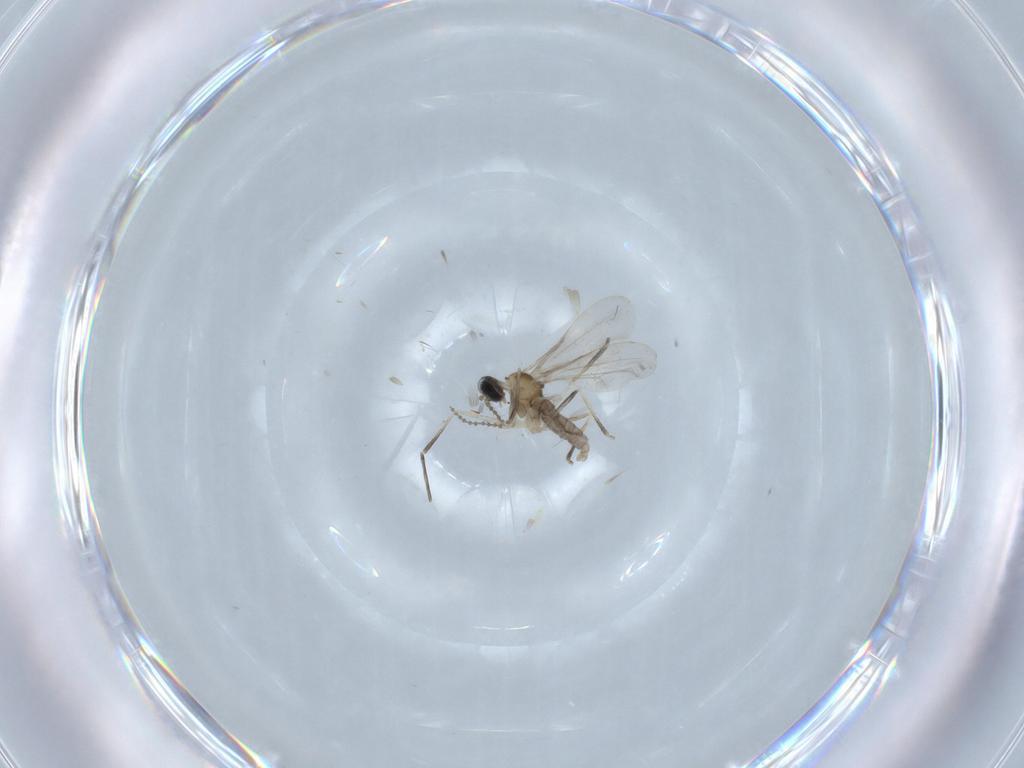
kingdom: Animalia
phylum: Arthropoda
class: Insecta
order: Diptera
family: Cecidomyiidae
